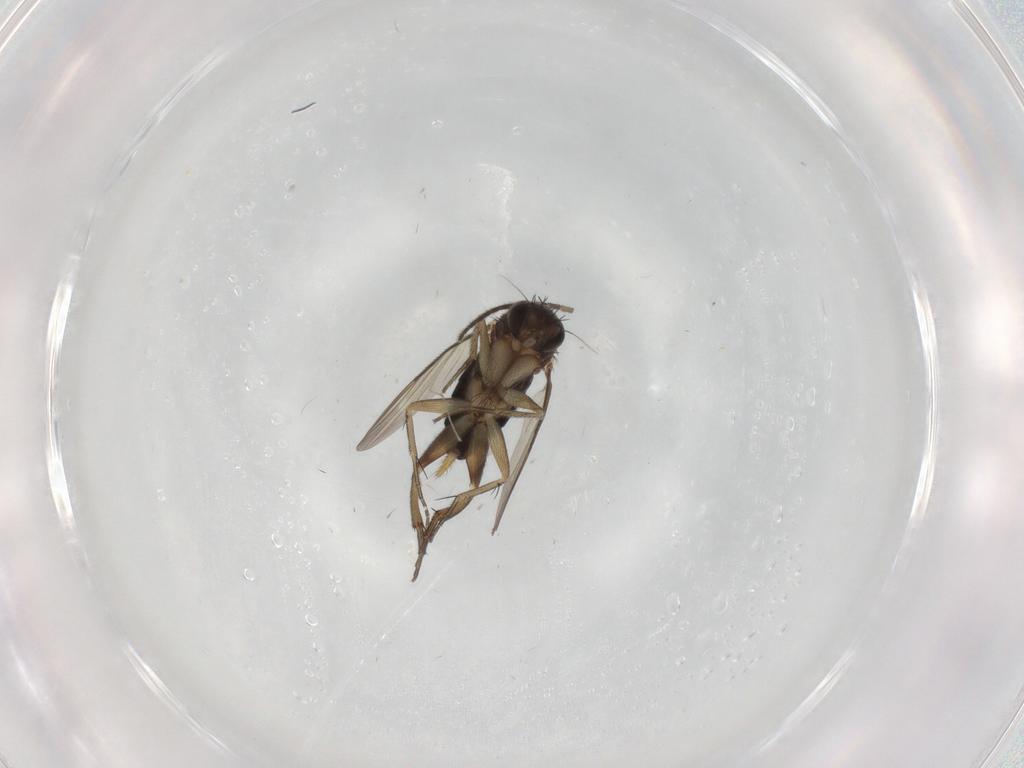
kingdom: Animalia
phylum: Arthropoda
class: Insecta
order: Diptera
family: Phoridae
